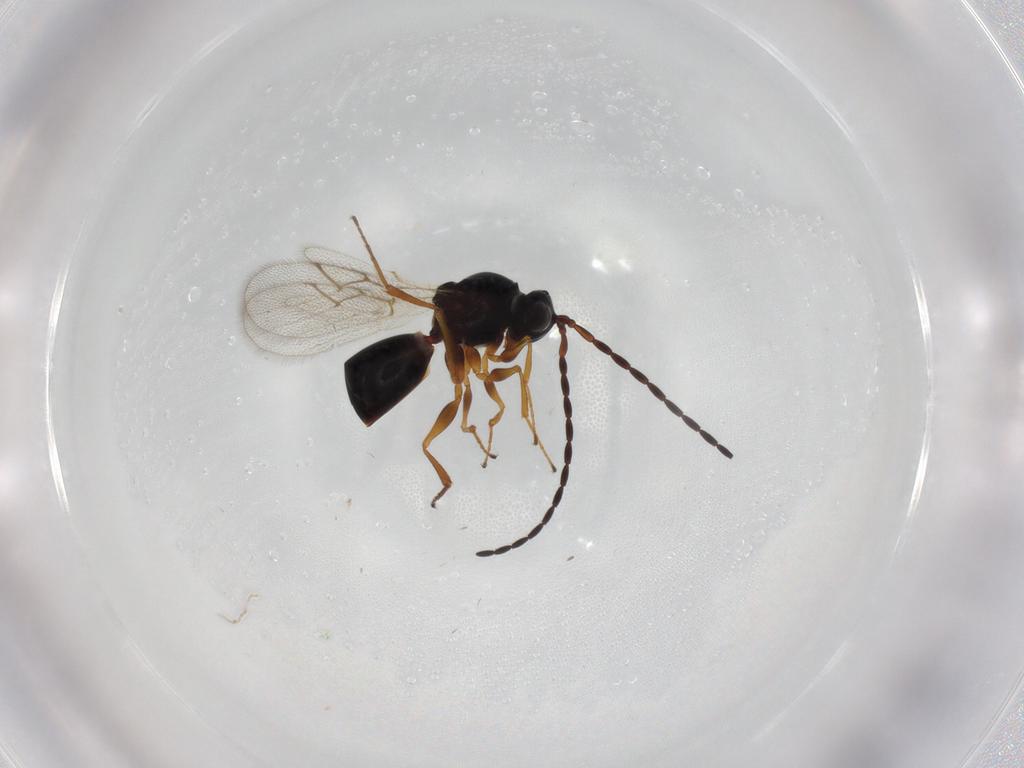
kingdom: Animalia
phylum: Arthropoda
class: Insecta
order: Hymenoptera
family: Figitidae
